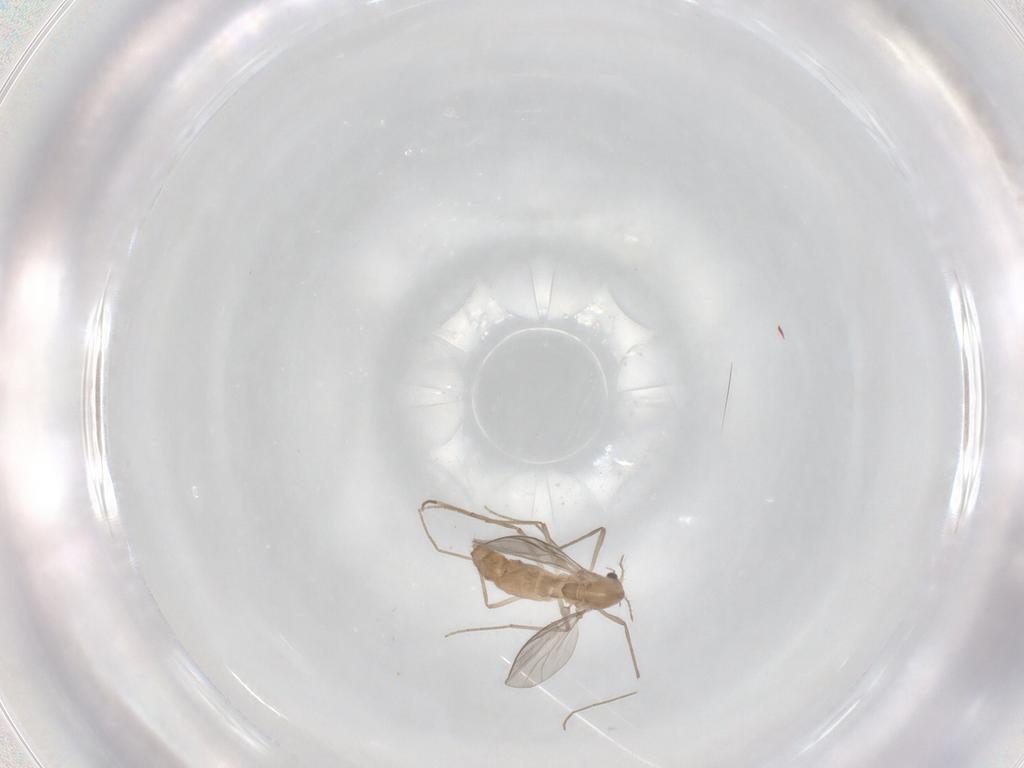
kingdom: Animalia
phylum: Arthropoda
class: Insecta
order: Diptera
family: Chironomidae
